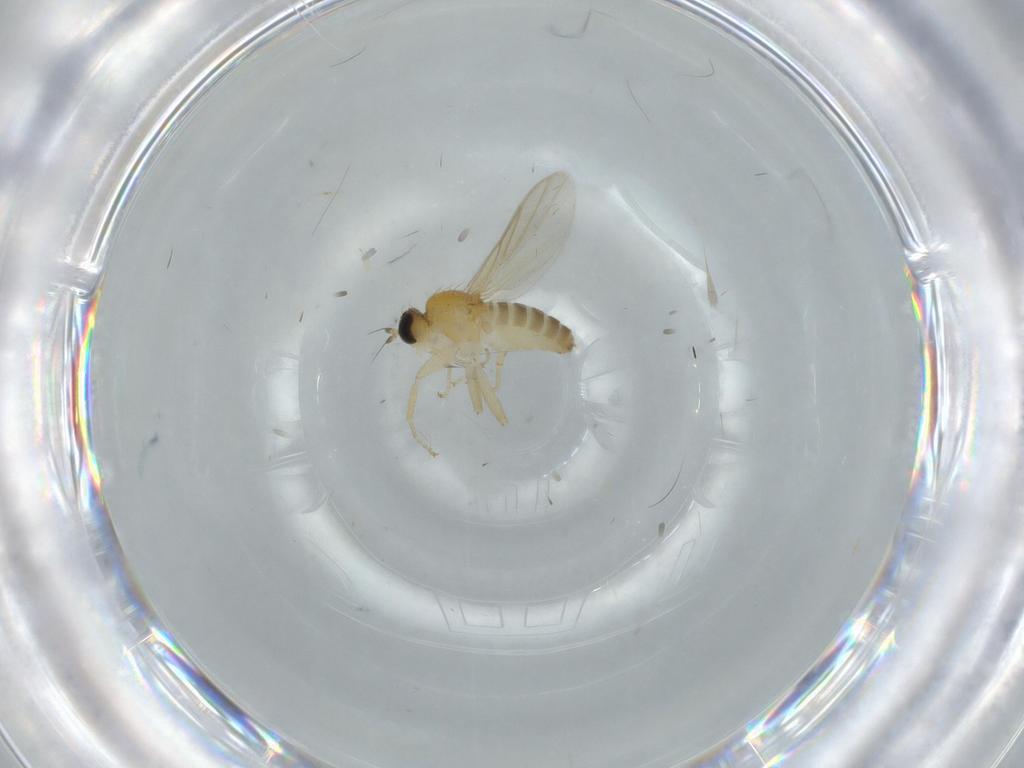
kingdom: Animalia
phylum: Arthropoda
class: Insecta
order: Diptera
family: Hybotidae
